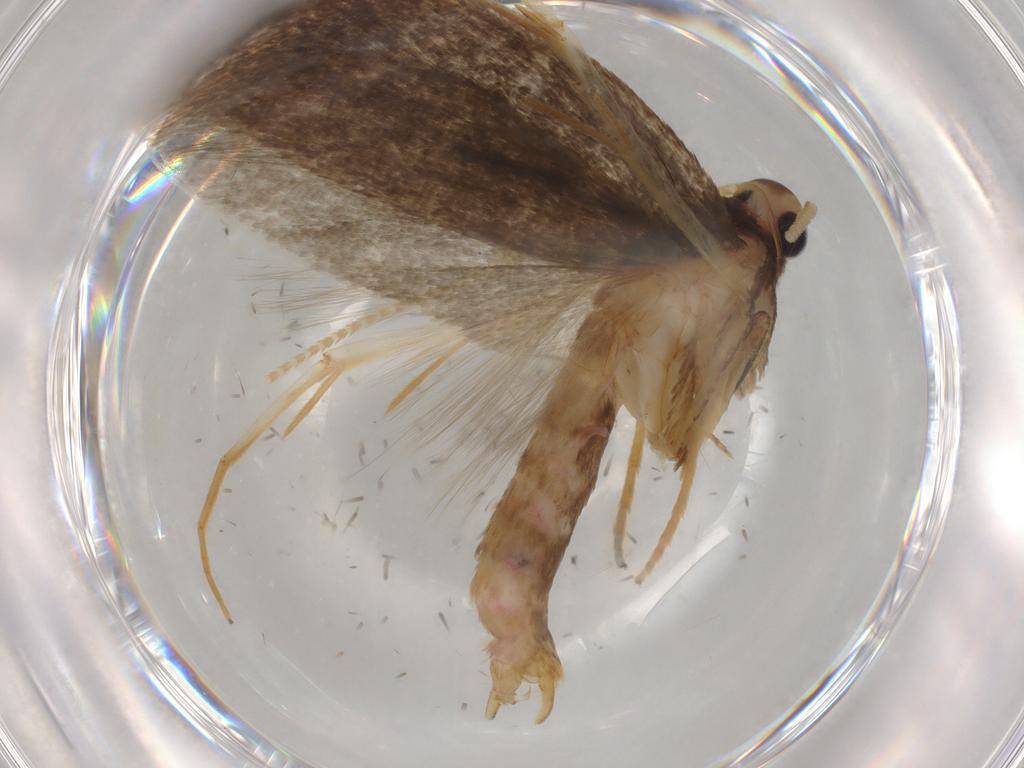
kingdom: Animalia
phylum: Arthropoda
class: Insecta
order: Lepidoptera
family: Lecithoceridae
